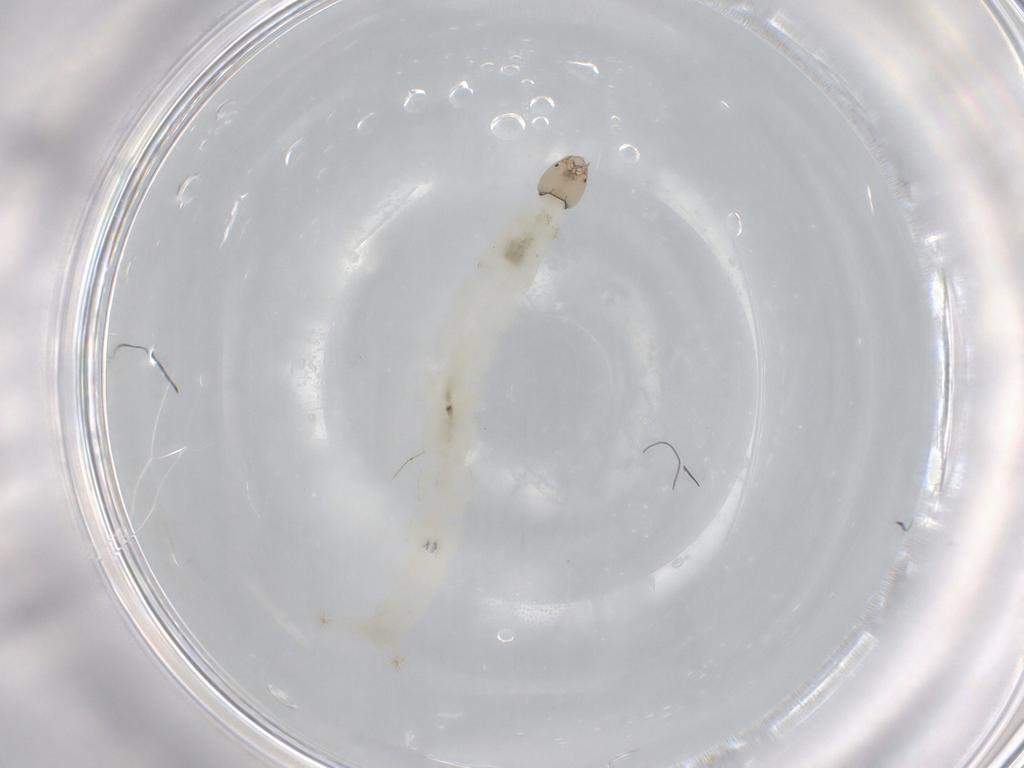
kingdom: Animalia
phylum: Arthropoda
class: Insecta
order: Diptera
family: Chironomidae
